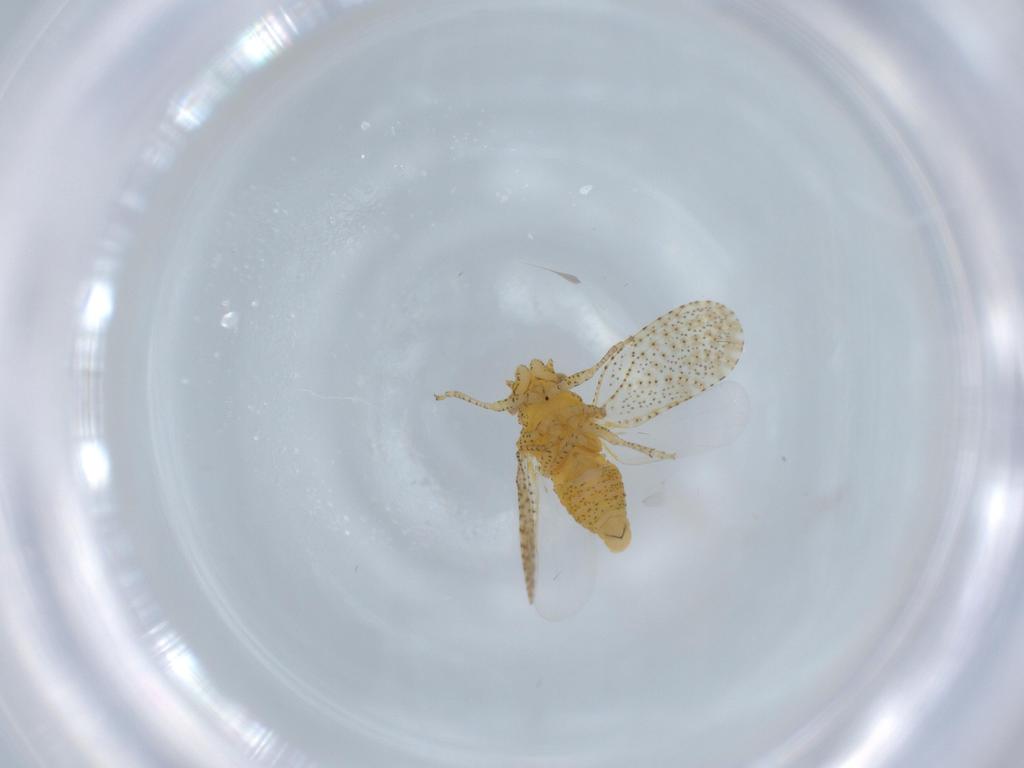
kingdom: Animalia
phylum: Arthropoda
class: Insecta
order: Hemiptera
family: Psyllidae
